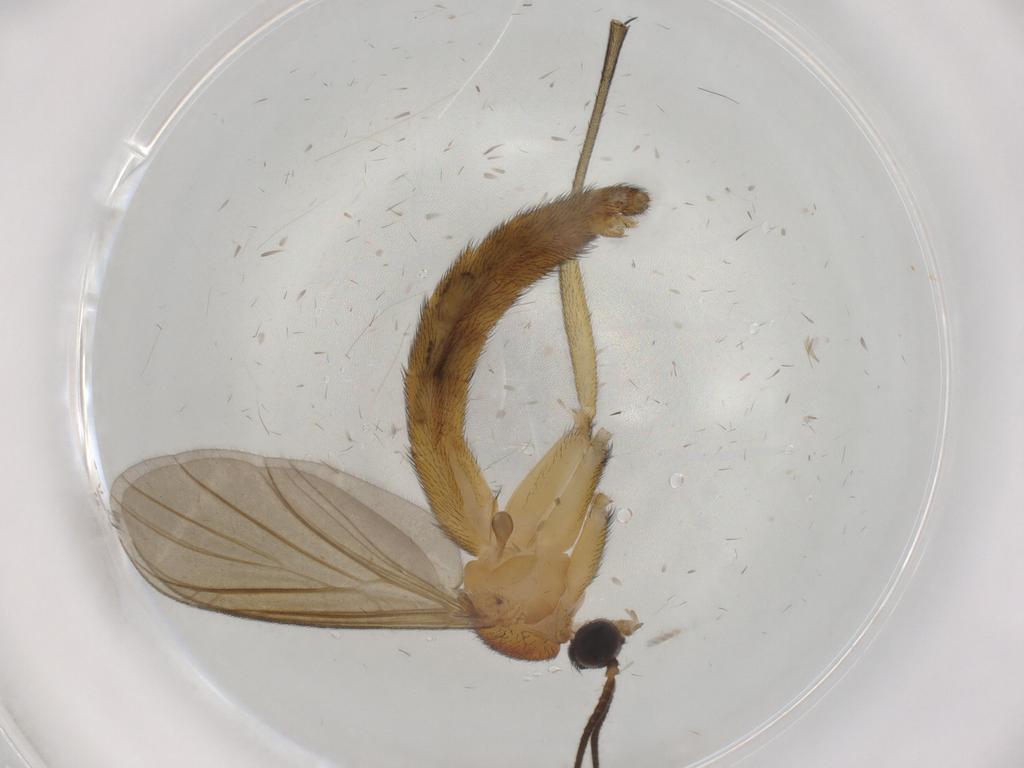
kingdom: Animalia
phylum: Arthropoda
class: Insecta
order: Diptera
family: Cecidomyiidae
